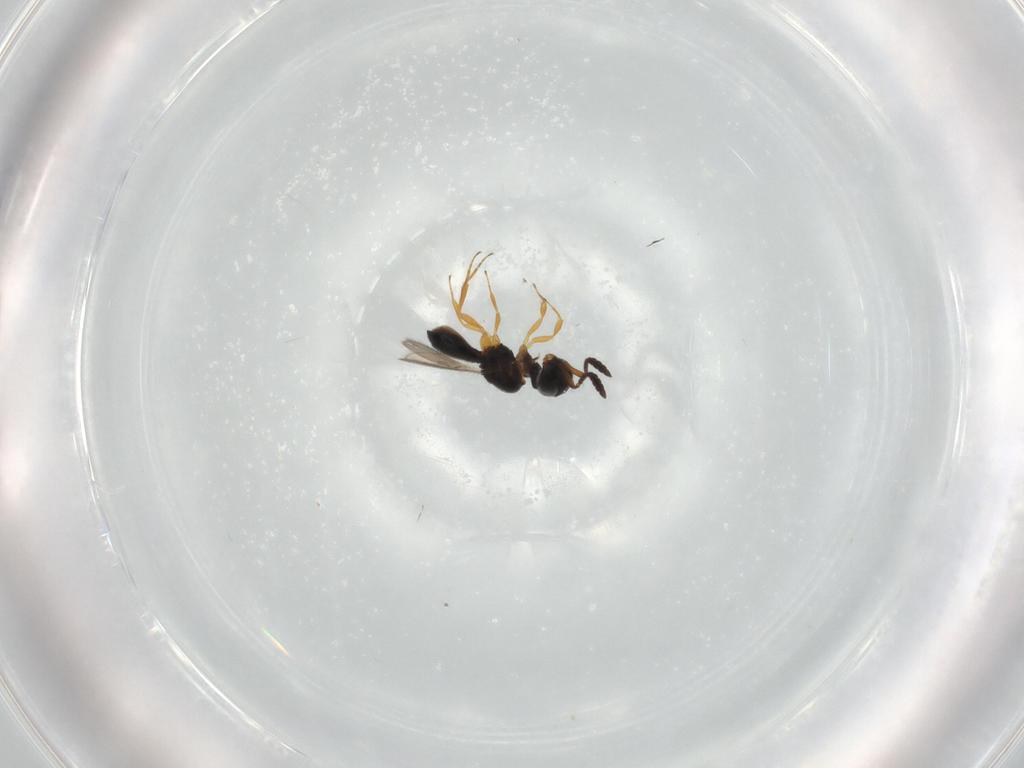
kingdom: Animalia
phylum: Arthropoda
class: Insecta
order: Hymenoptera
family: Scelionidae
